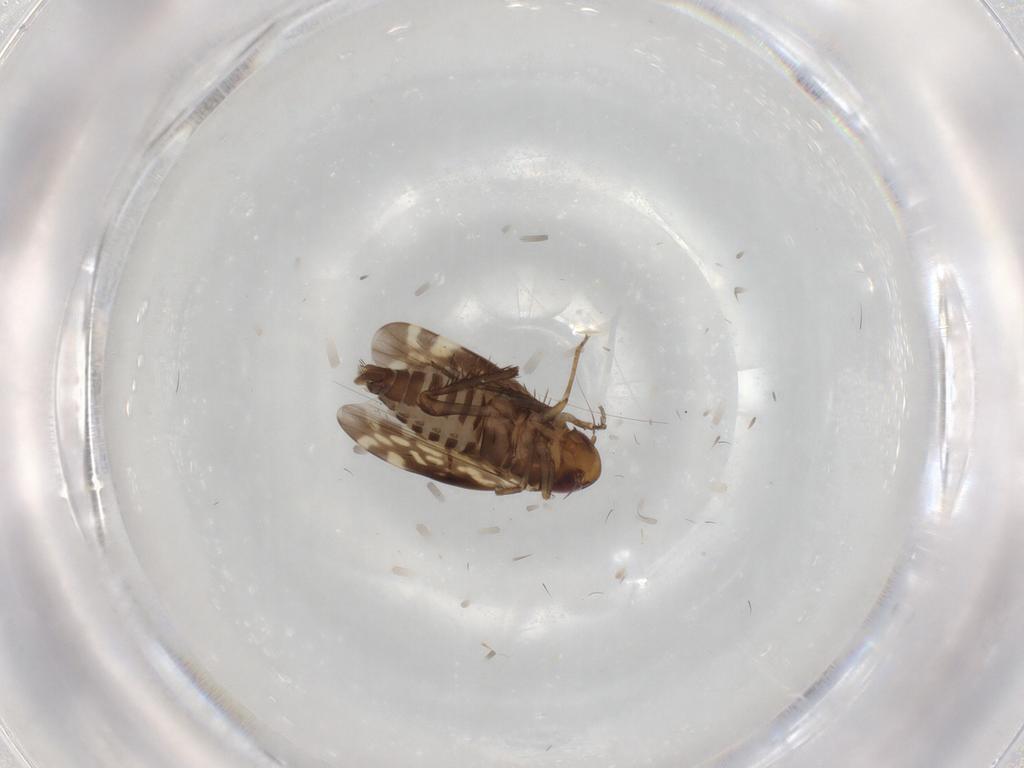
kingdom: Animalia
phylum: Arthropoda
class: Insecta
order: Hemiptera
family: Cicadellidae
